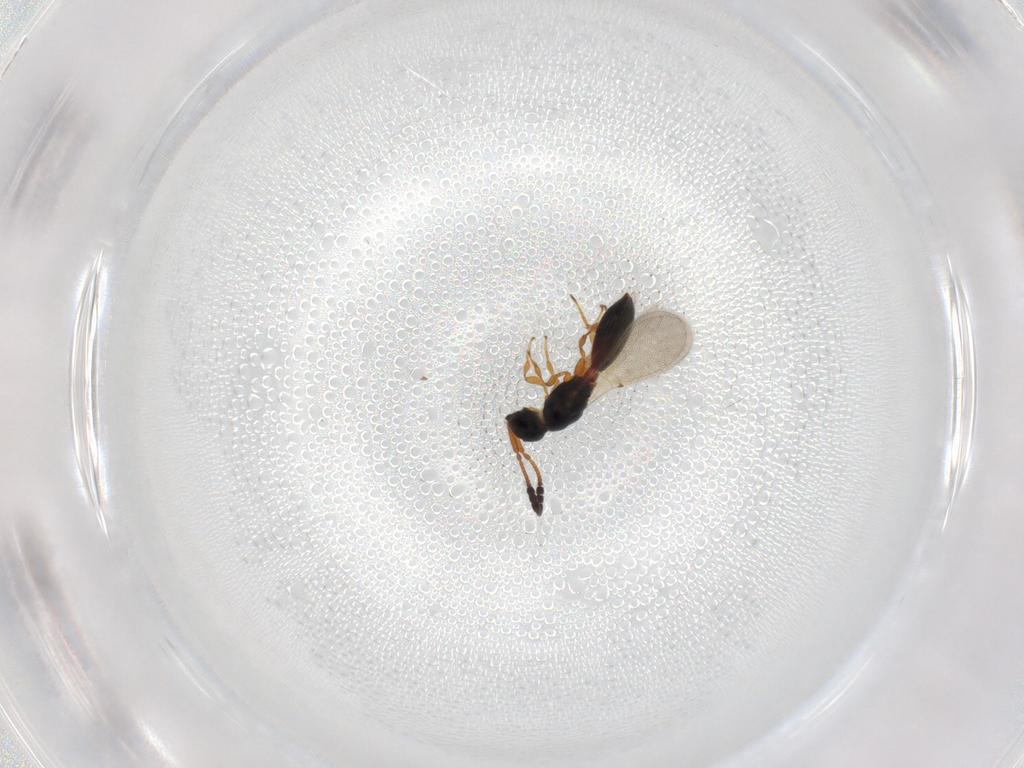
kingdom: Animalia
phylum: Arthropoda
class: Insecta
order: Hymenoptera
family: Diapriidae
